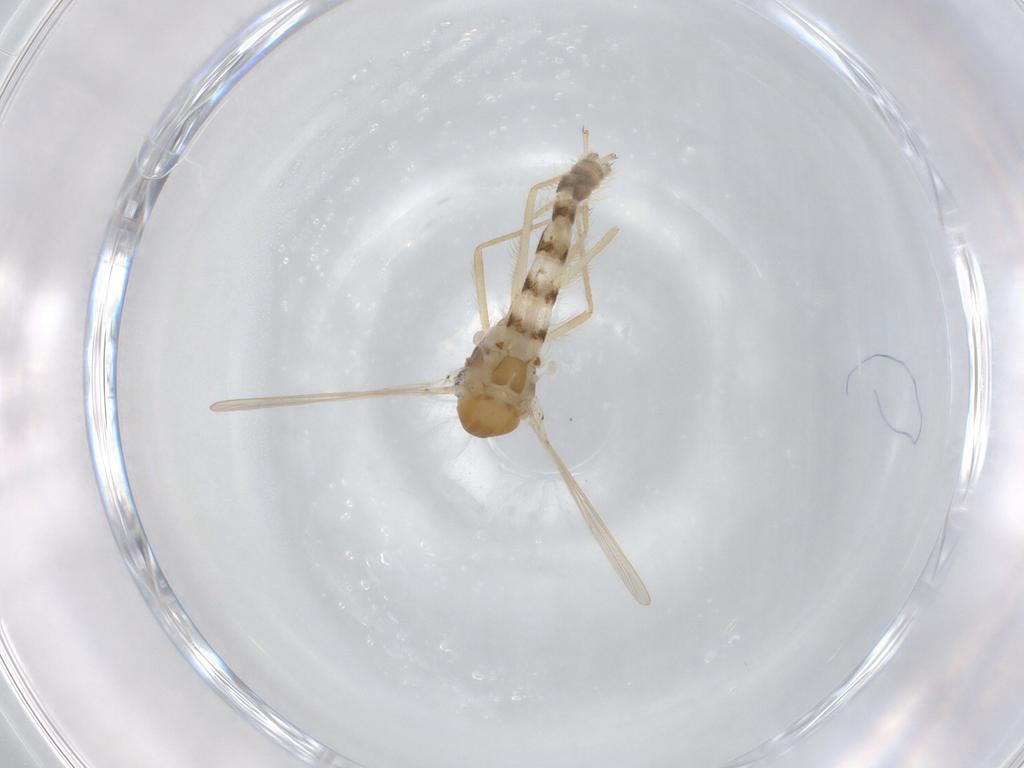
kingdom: Animalia
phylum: Arthropoda
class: Insecta
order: Diptera
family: Chironomidae
